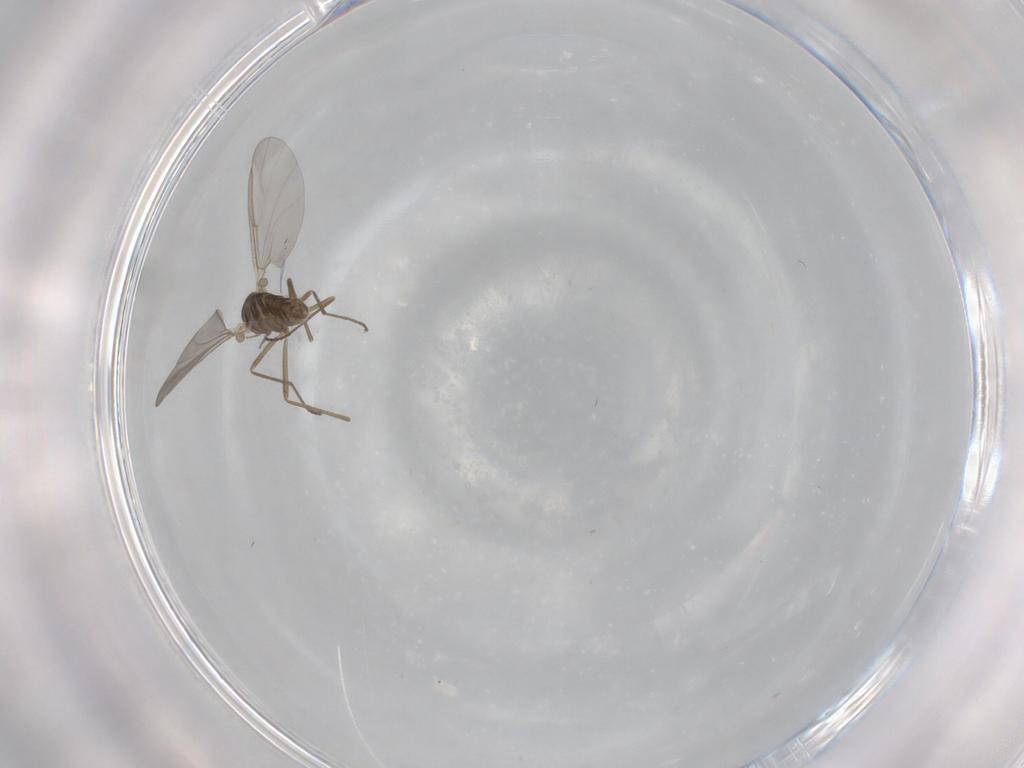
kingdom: Animalia
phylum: Arthropoda
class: Insecta
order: Diptera
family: Cecidomyiidae
